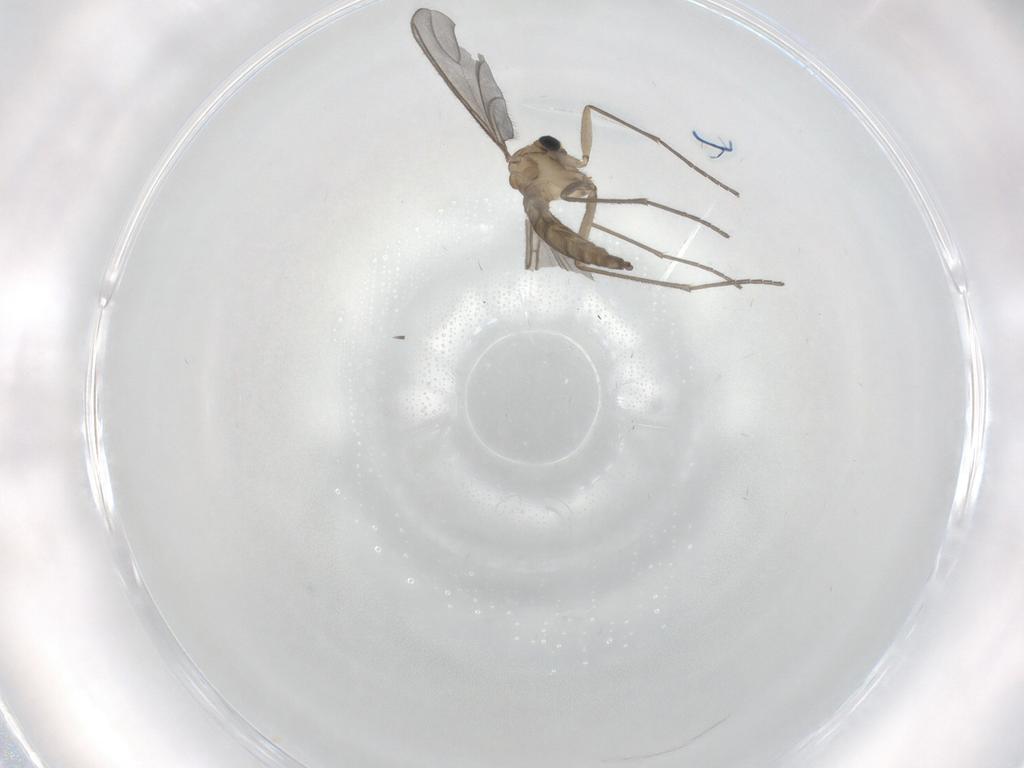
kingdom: Animalia
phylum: Arthropoda
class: Insecta
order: Diptera
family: Sciaridae
